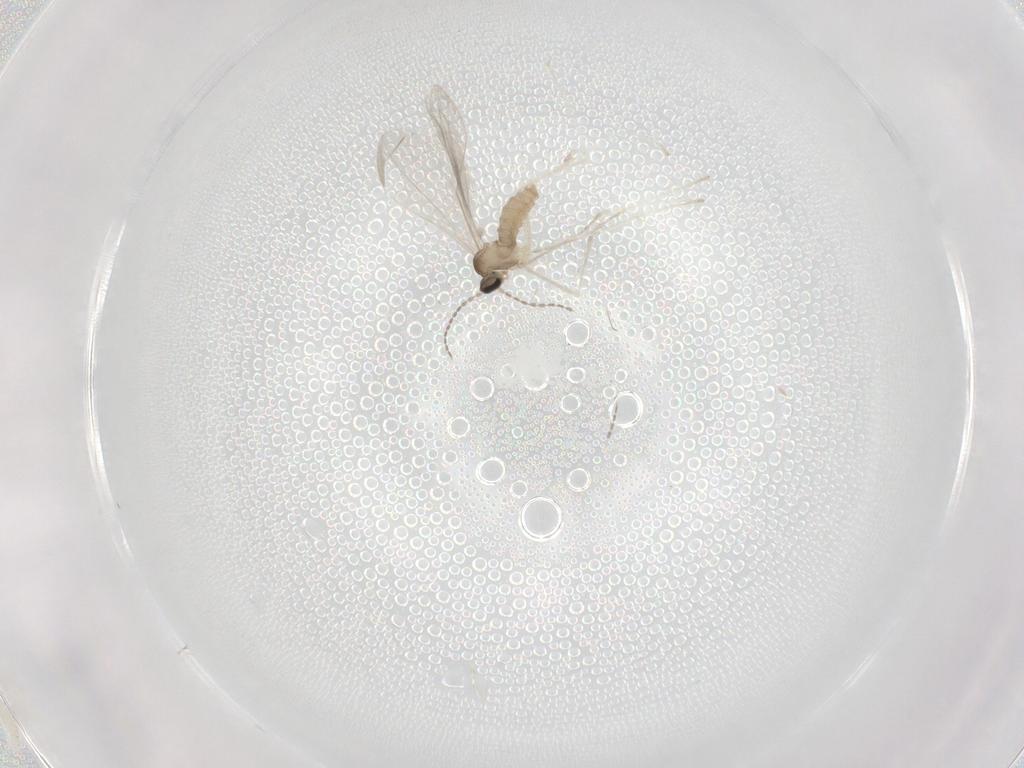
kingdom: Animalia
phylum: Arthropoda
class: Insecta
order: Diptera
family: Cecidomyiidae
